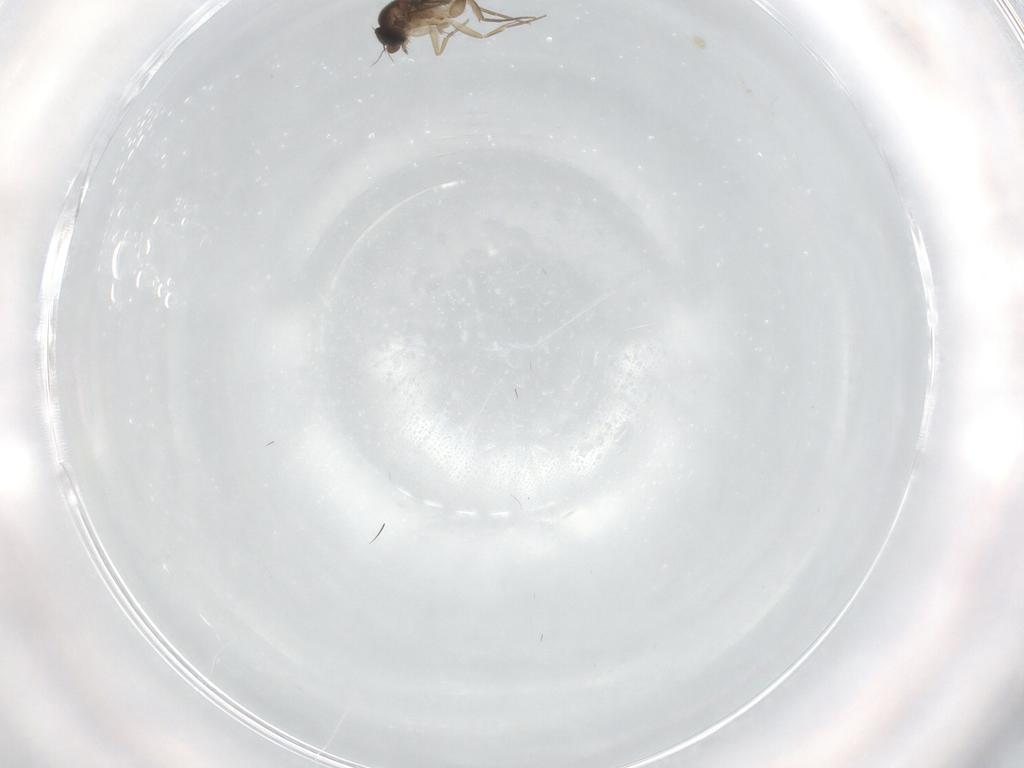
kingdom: Animalia
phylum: Arthropoda
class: Insecta
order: Diptera
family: Phoridae
